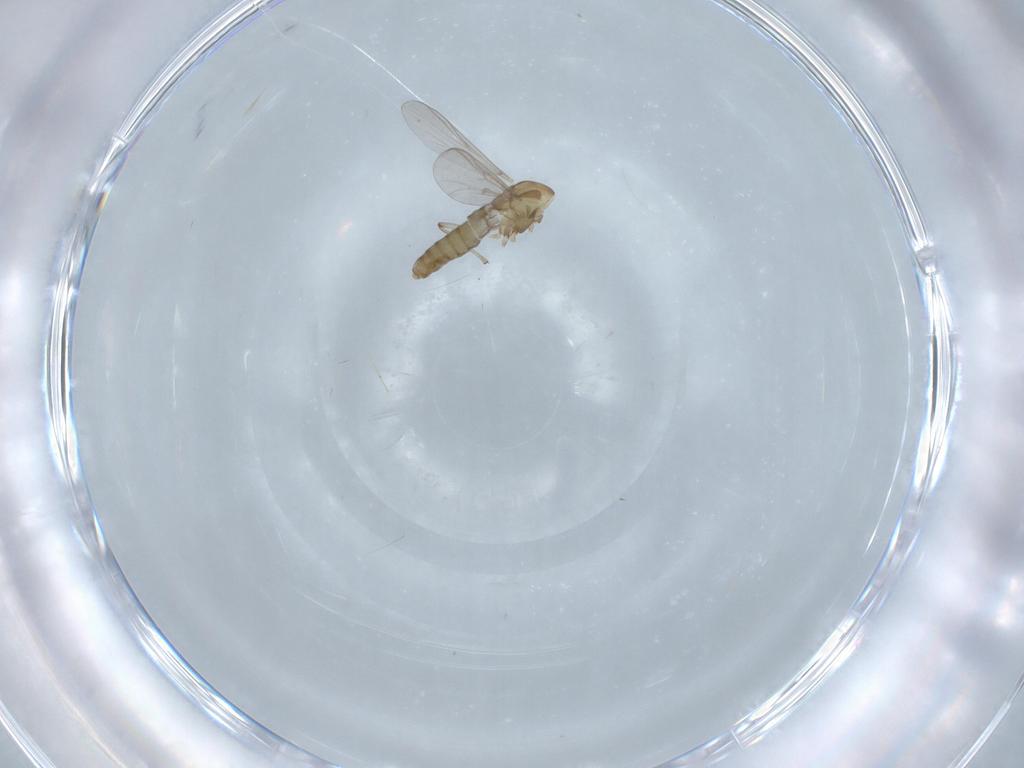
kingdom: Animalia
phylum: Arthropoda
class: Insecta
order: Diptera
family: Chironomidae
